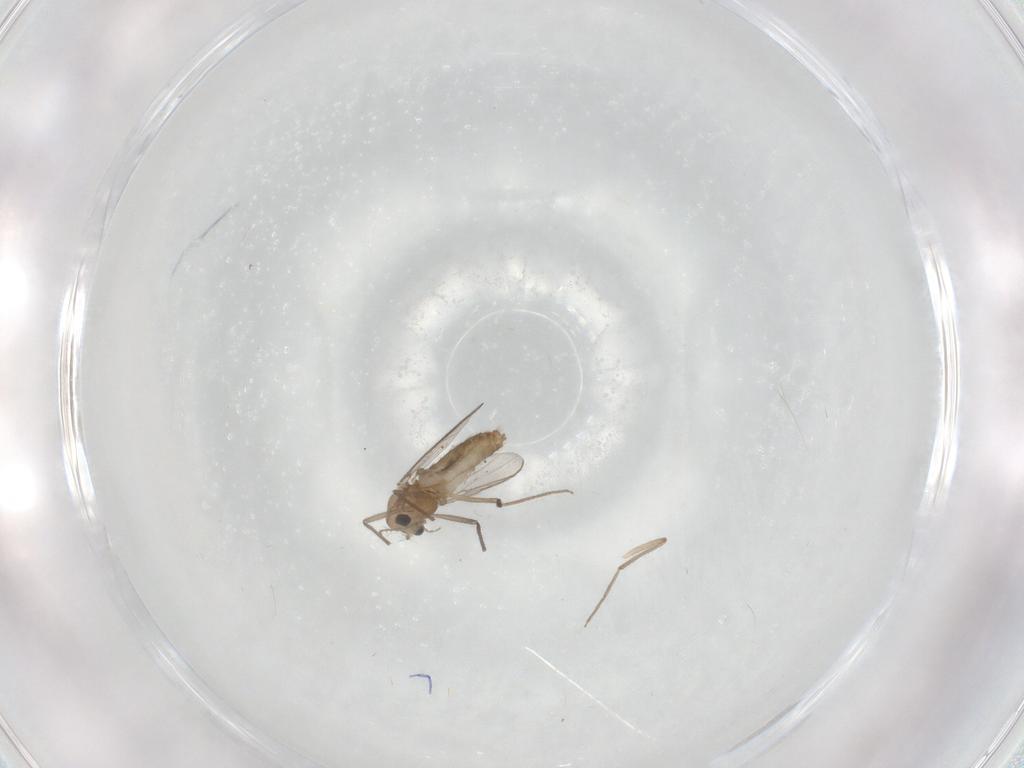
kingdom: Animalia
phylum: Arthropoda
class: Insecta
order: Diptera
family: Chironomidae
